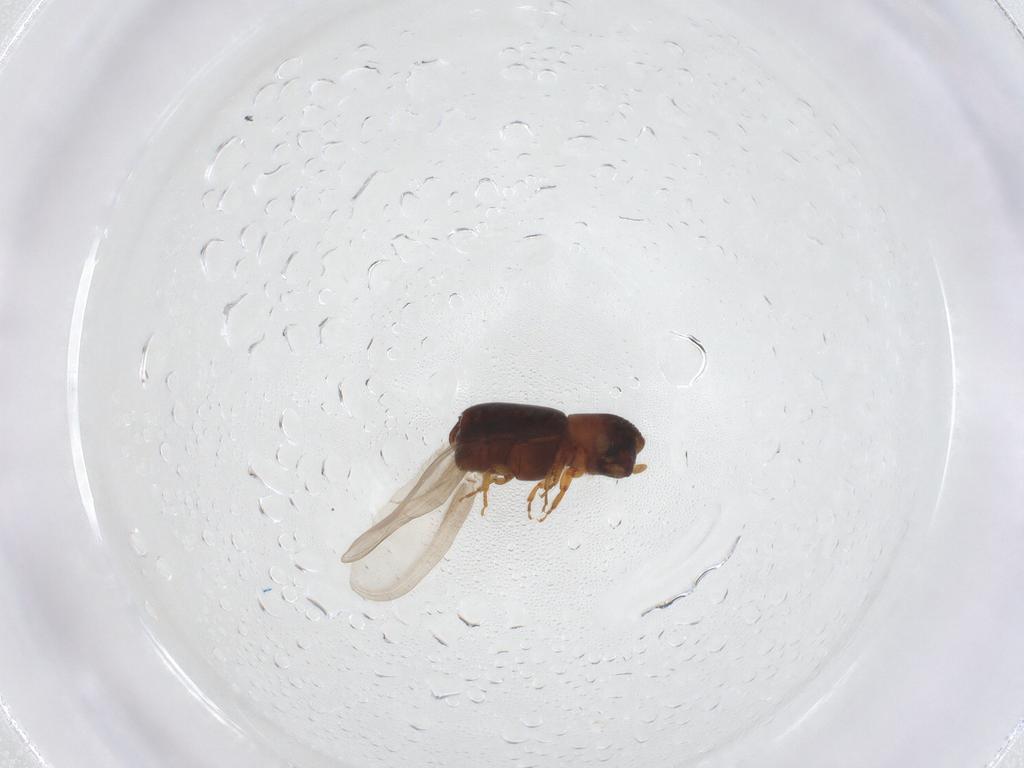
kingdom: Animalia
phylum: Arthropoda
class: Insecta
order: Coleoptera
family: Curculionidae
